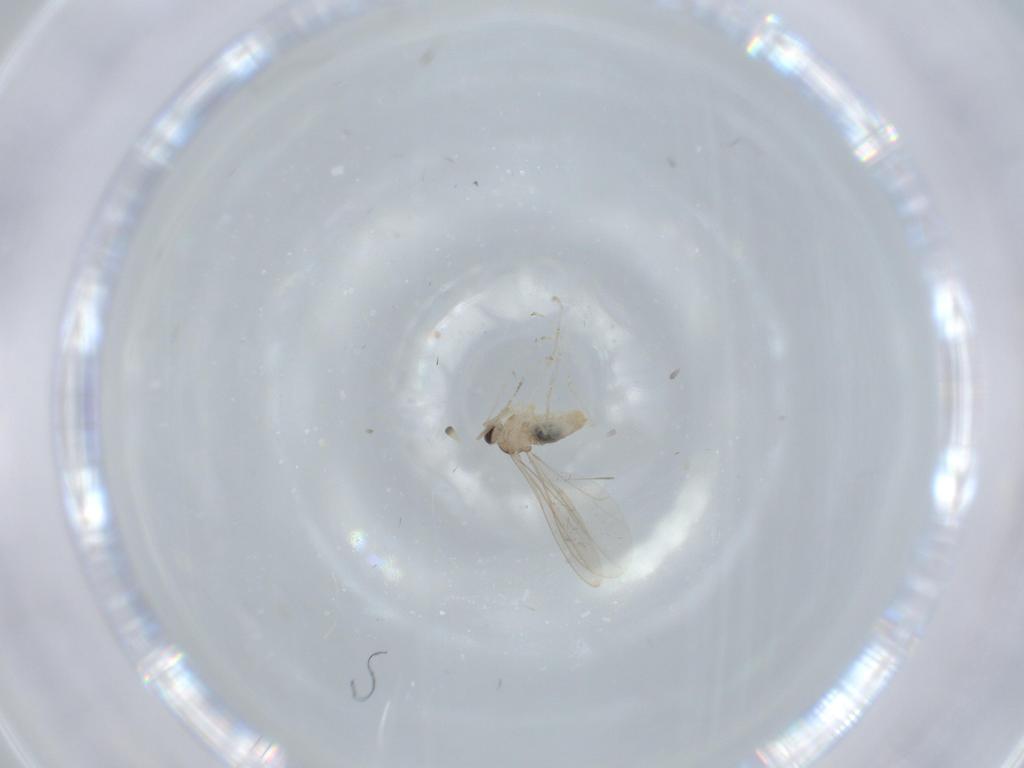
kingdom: Animalia
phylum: Arthropoda
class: Insecta
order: Diptera
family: Cecidomyiidae
